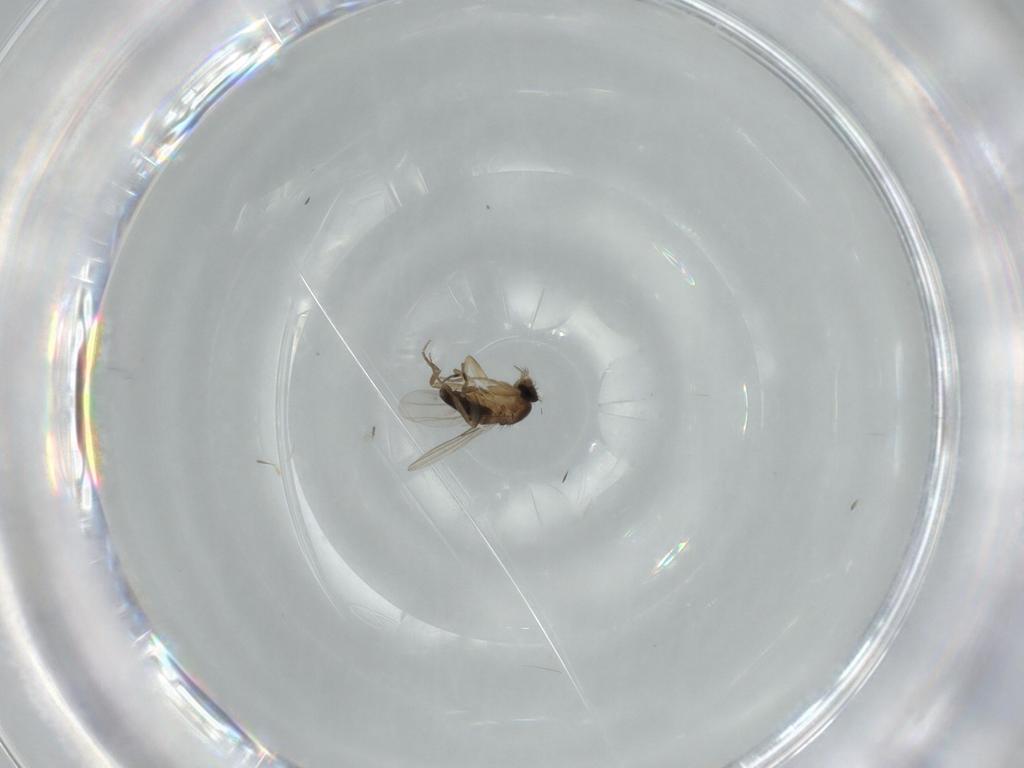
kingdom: Animalia
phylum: Arthropoda
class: Insecta
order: Diptera
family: Phoridae
